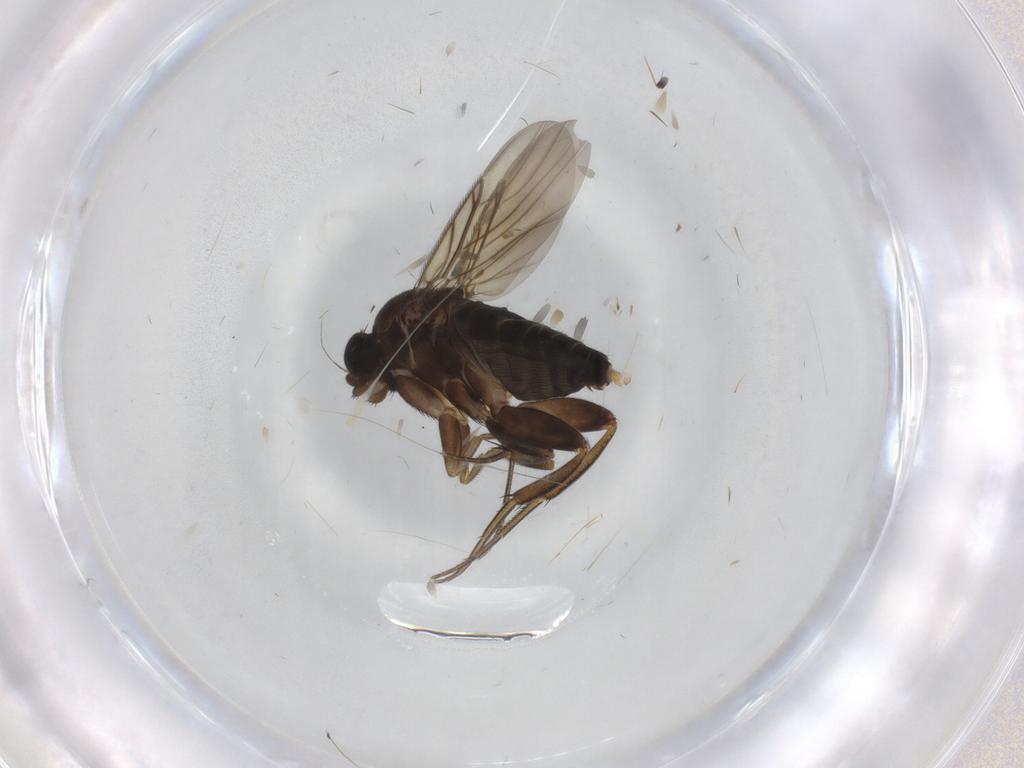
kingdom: Animalia
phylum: Arthropoda
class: Insecta
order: Diptera
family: Phoridae
